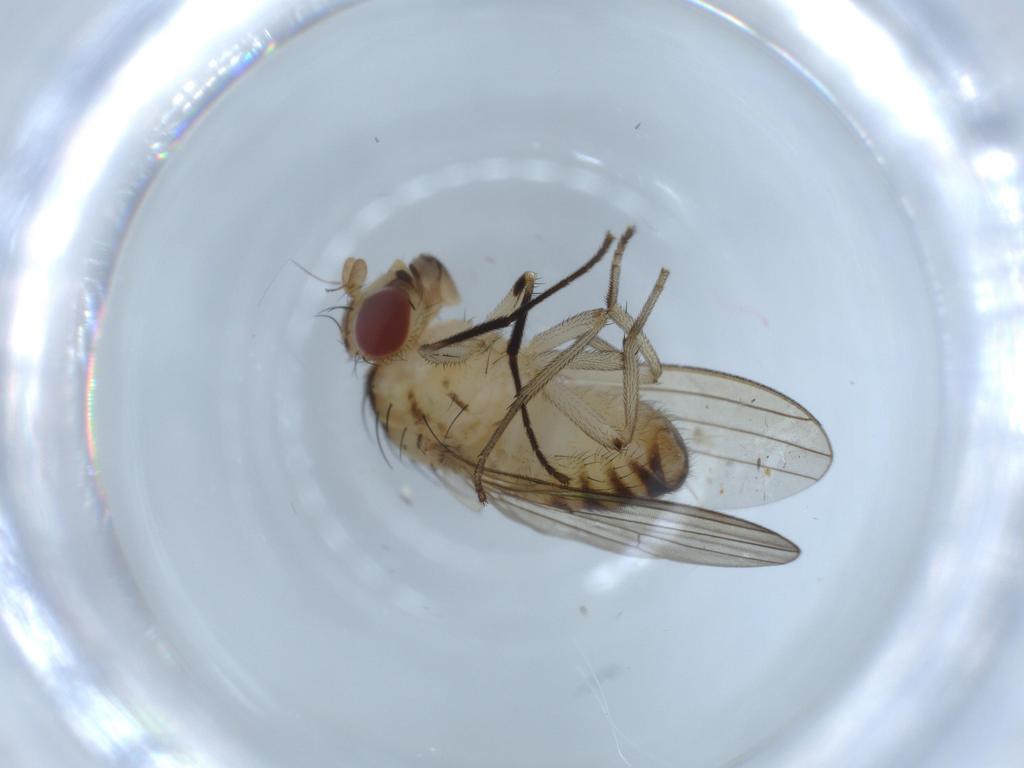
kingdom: Animalia
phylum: Arthropoda
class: Insecta
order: Diptera
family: Lauxaniidae
